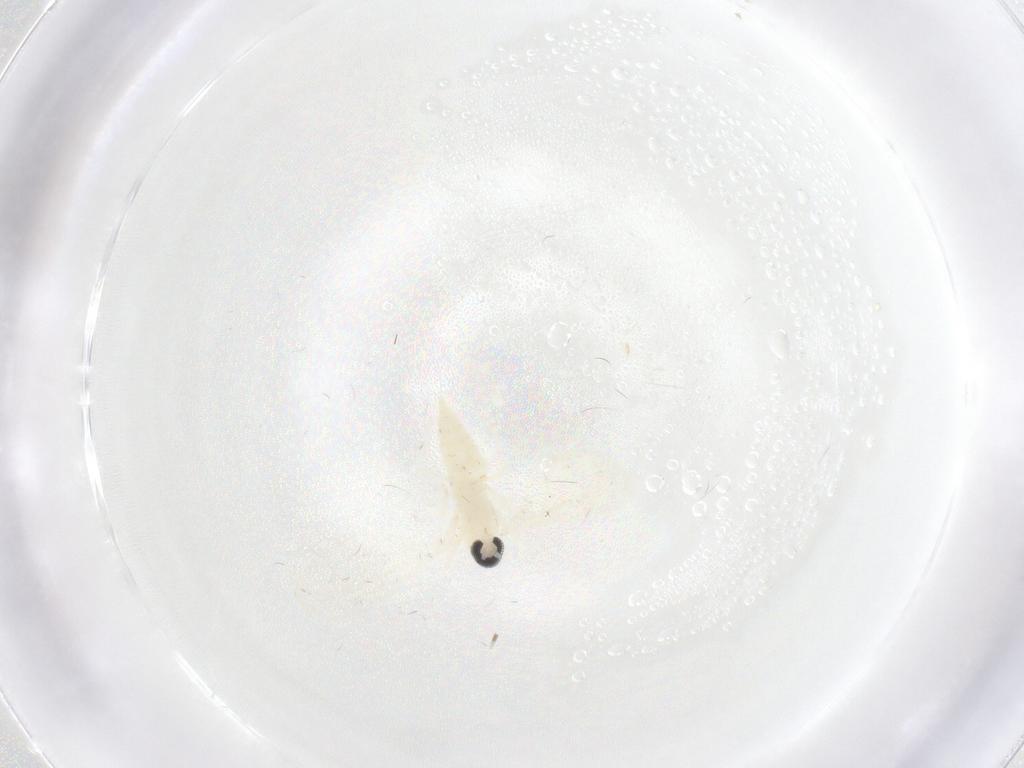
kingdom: Animalia
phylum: Arthropoda
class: Insecta
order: Diptera
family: Cecidomyiidae
